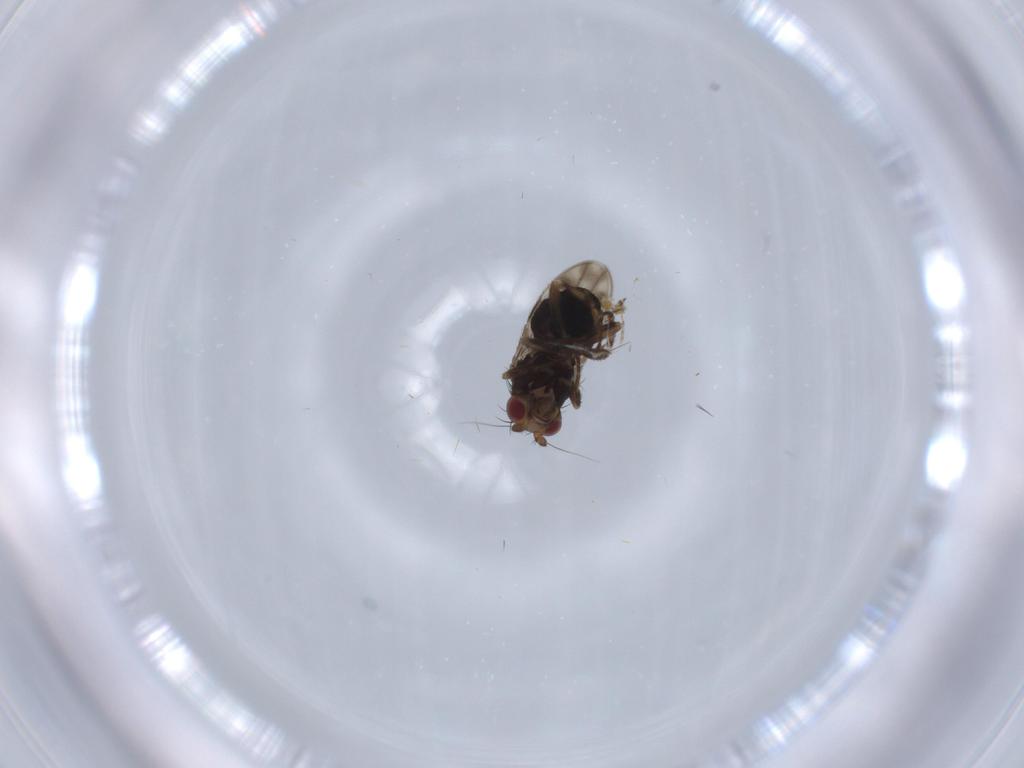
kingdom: Animalia
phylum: Arthropoda
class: Insecta
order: Diptera
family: Sphaeroceridae
